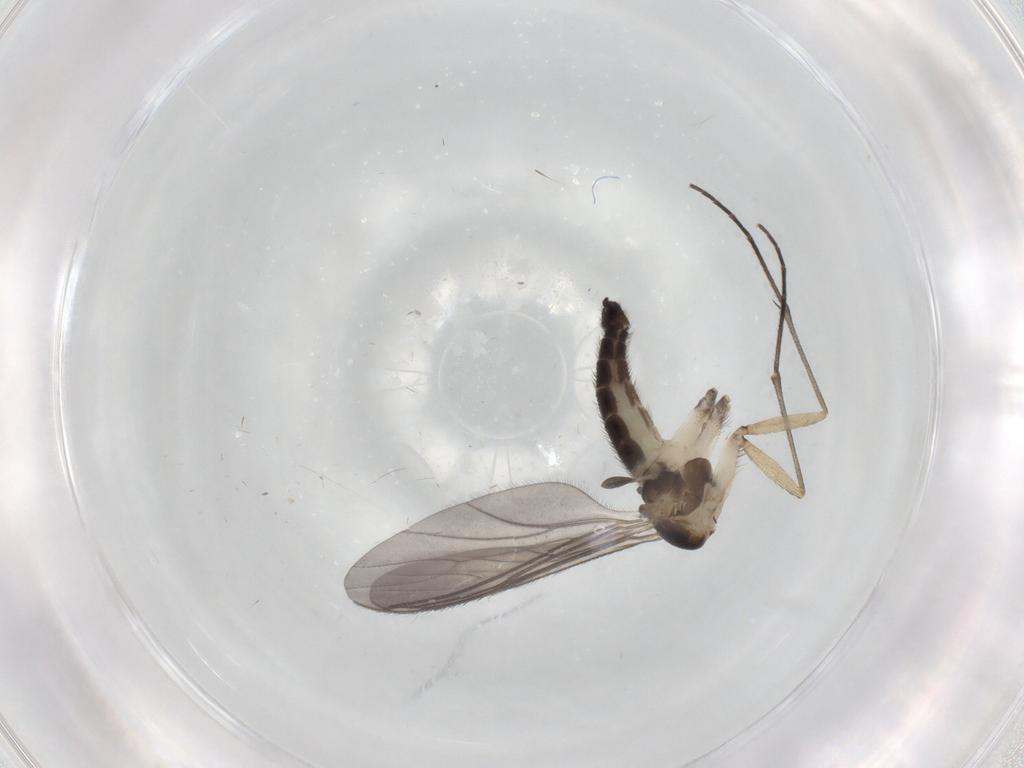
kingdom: Animalia
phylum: Arthropoda
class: Insecta
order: Diptera
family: Sciaridae
